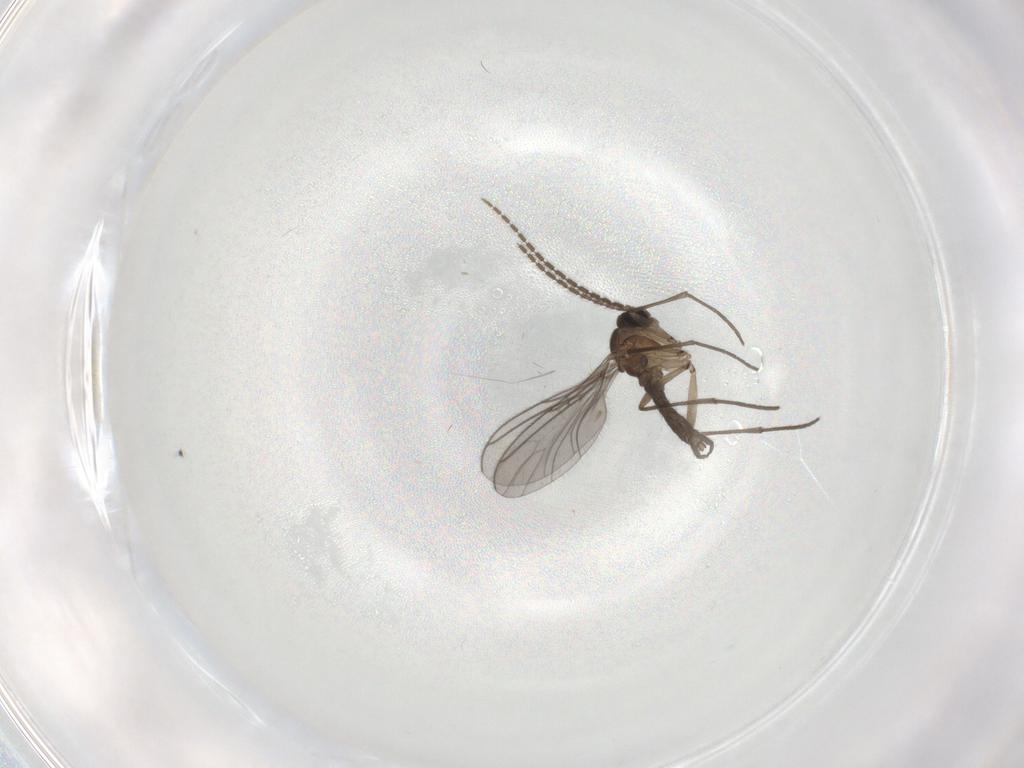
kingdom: Animalia
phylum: Arthropoda
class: Insecta
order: Diptera
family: Sciaridae
